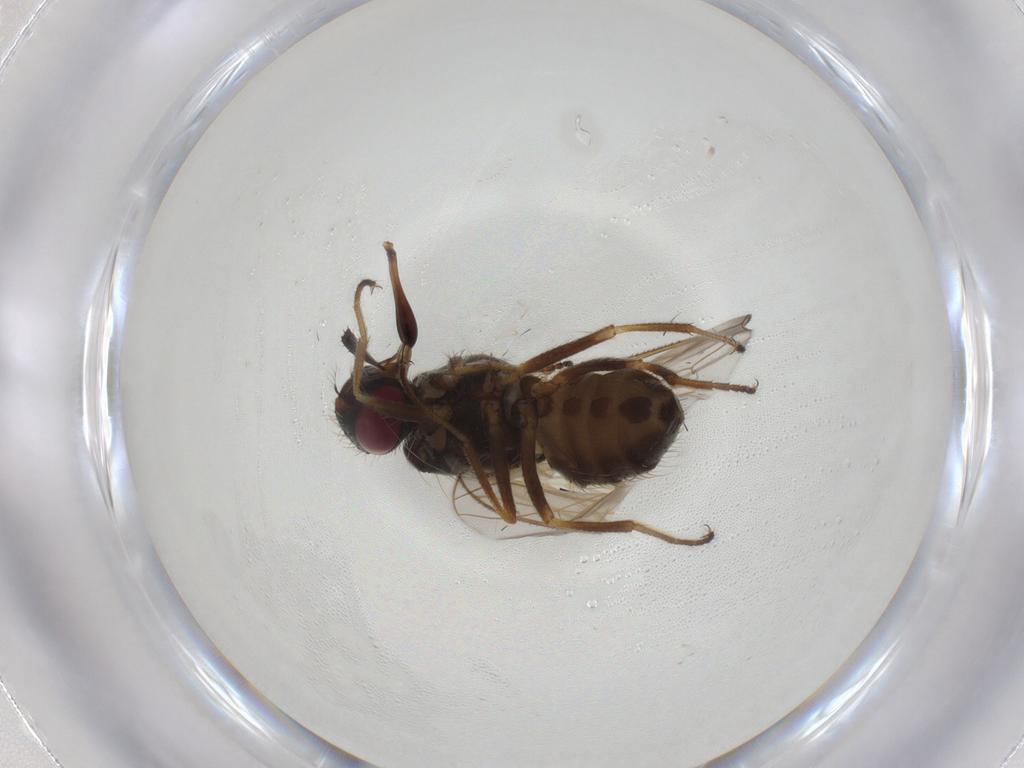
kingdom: Animalia
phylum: Arthropoda
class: Insecta
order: Diptera
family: Muscidae
